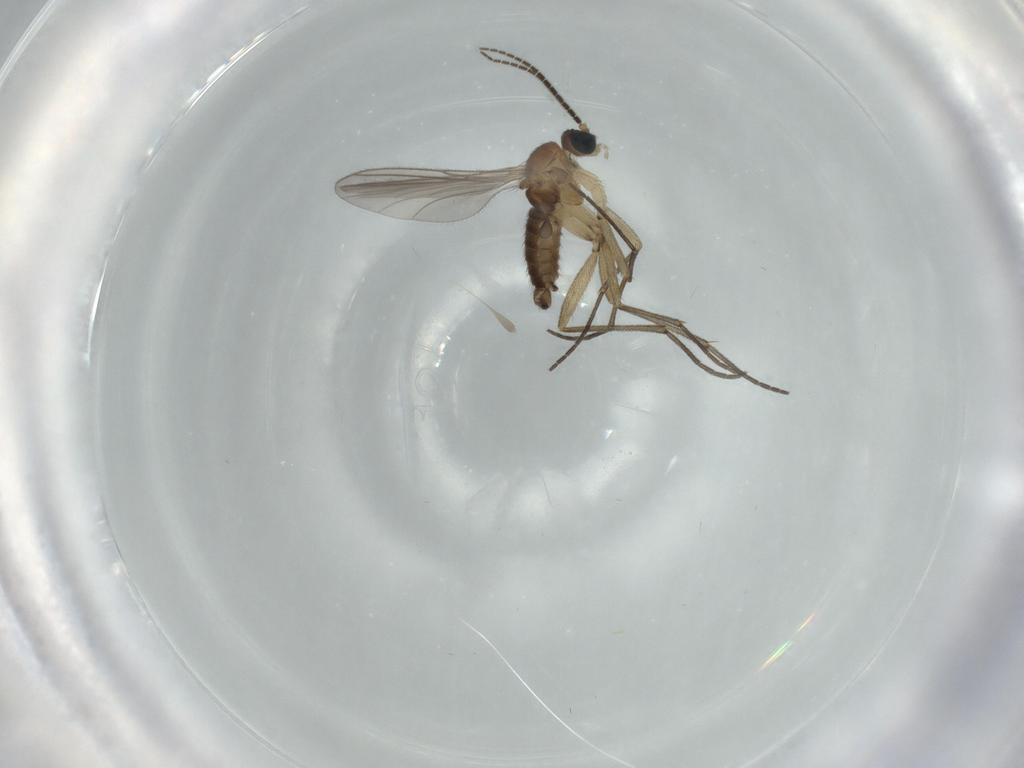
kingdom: Animalia
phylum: Arthropoda
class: Insecta
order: Diptera
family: Sciaridae
